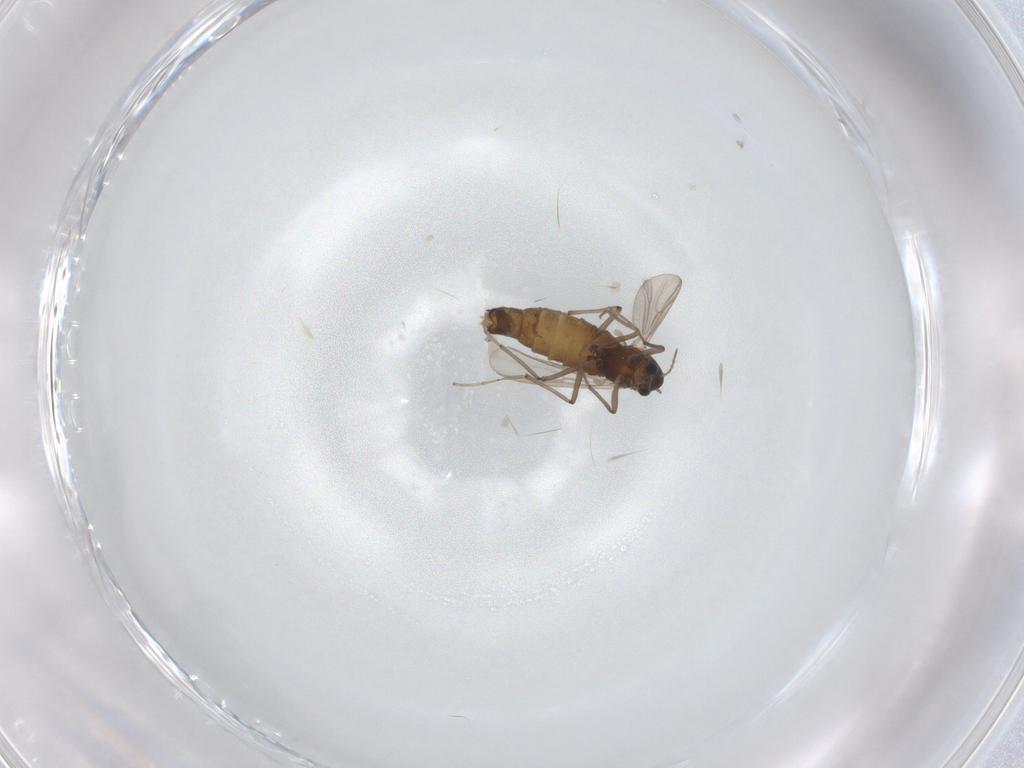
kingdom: Animalia
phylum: Arthropoda
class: Insecta
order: Diptera
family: Chironomidae
